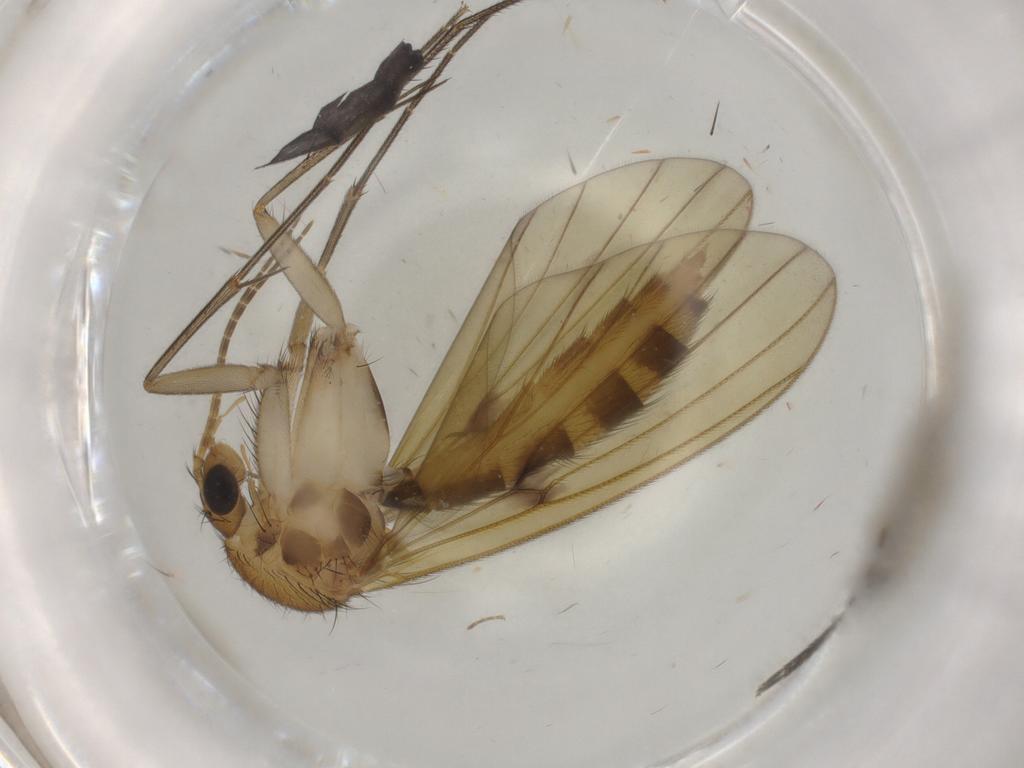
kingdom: Animalia
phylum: Arthropoda
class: Insecta
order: Diptera
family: Mycetophilidae
